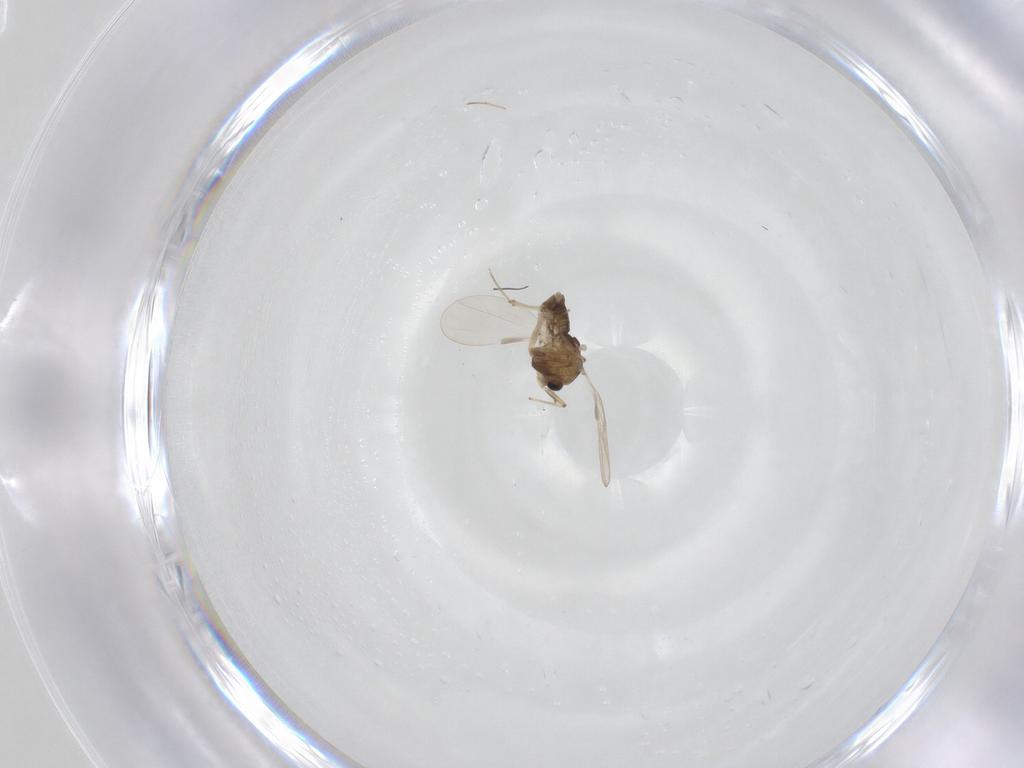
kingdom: Animalia
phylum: Arthropoda
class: Insecta
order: Diptera
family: Chironomidae
